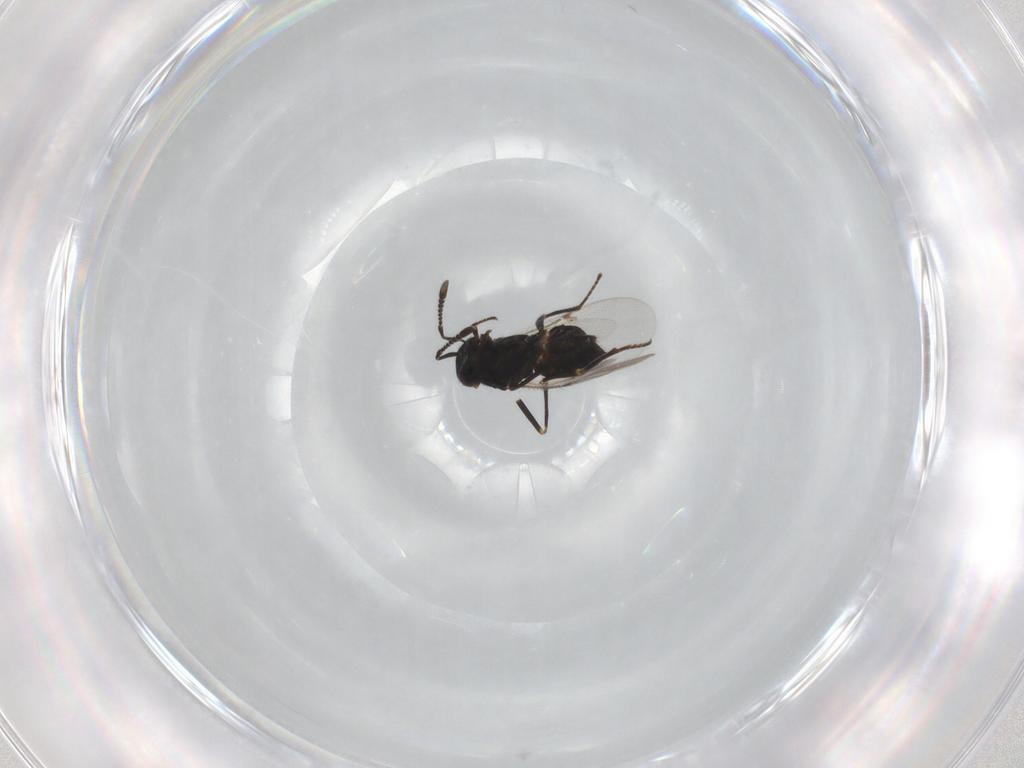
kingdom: Animalia
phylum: Arthropoda
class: Insecta
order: Hymenoptera
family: Encyrtidae
